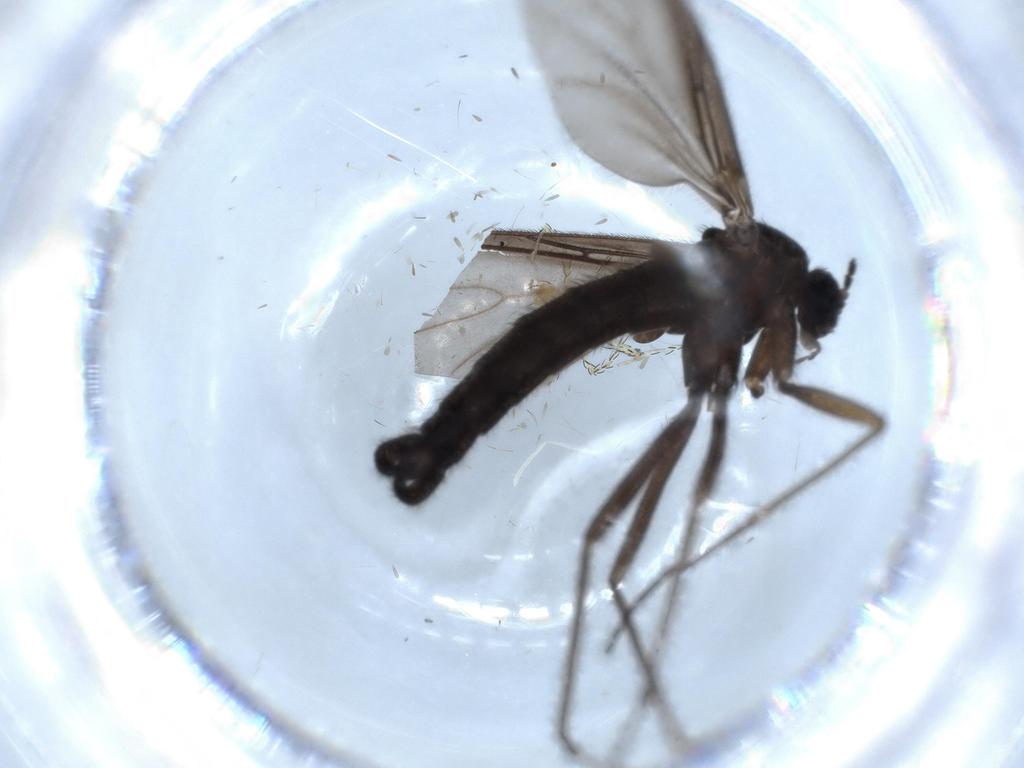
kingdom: Animalia
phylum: Arthropoda
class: Insecta
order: Diptera
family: Sciaridae
